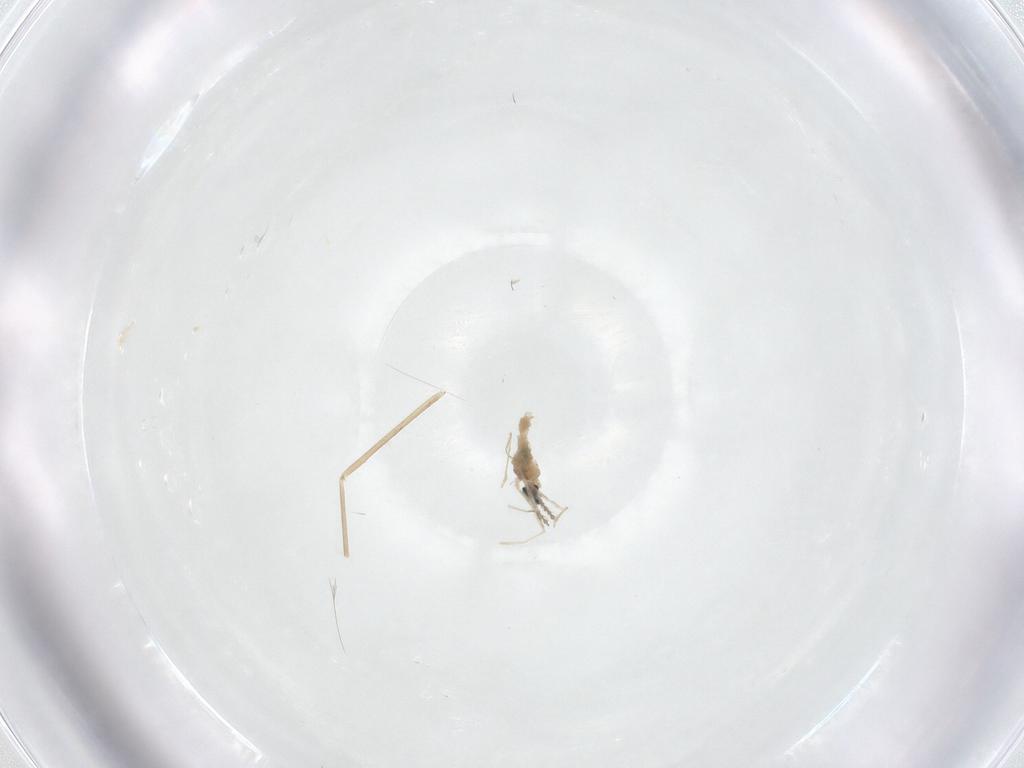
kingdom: Animalia
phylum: Arthropoda
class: Insecta
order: Diptera
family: Cecidomyiidae
